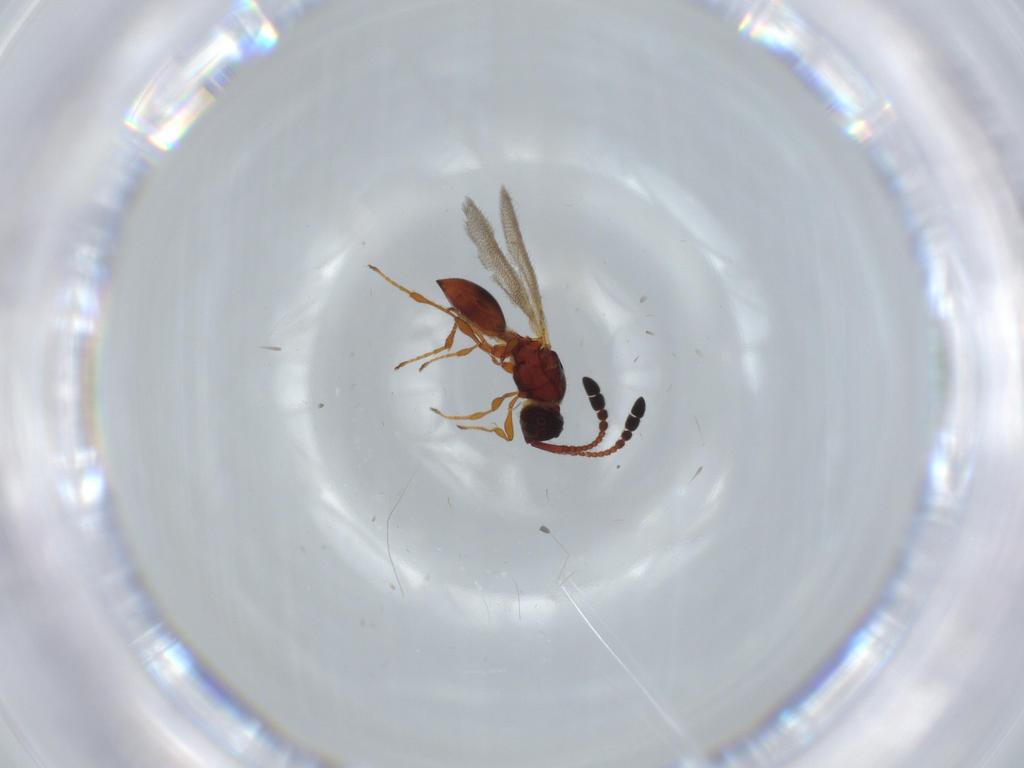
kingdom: Animalia
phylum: Arthropoda
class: Insecta
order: Hymenoptera
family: Diapriidae
